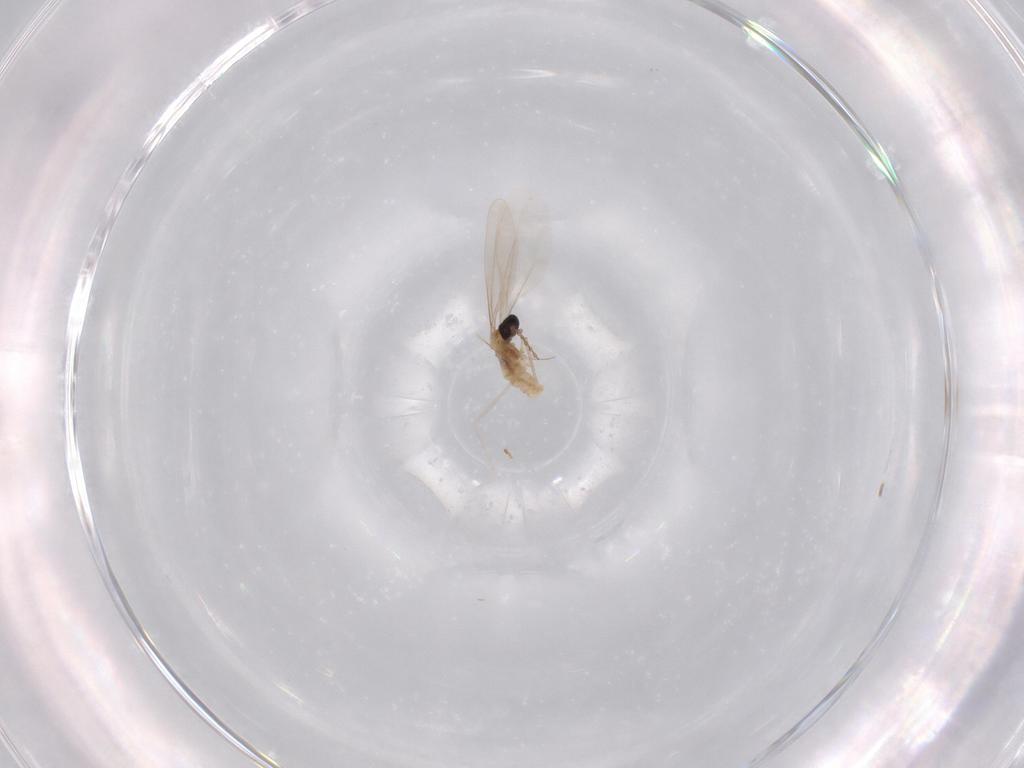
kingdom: Animalia
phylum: Arthropoda
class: Insecta
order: Diptera
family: Cecidomyiidae
